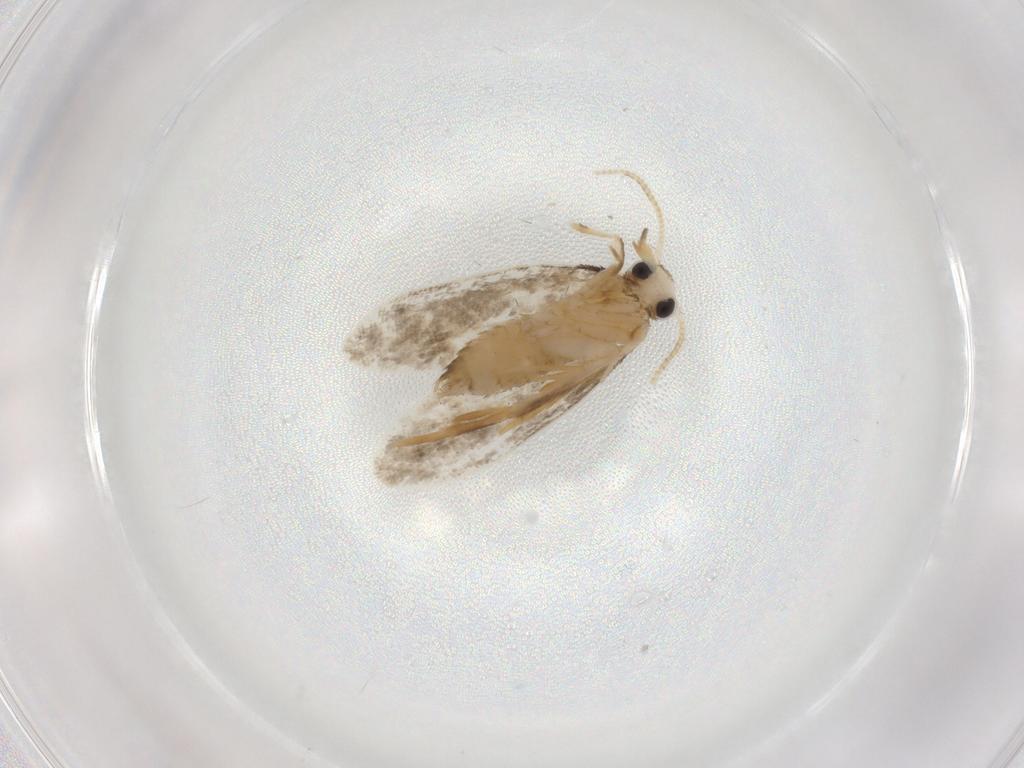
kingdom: Animalia
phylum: Arthropoda
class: Insecta
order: Lepidoptera
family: Psychidae
